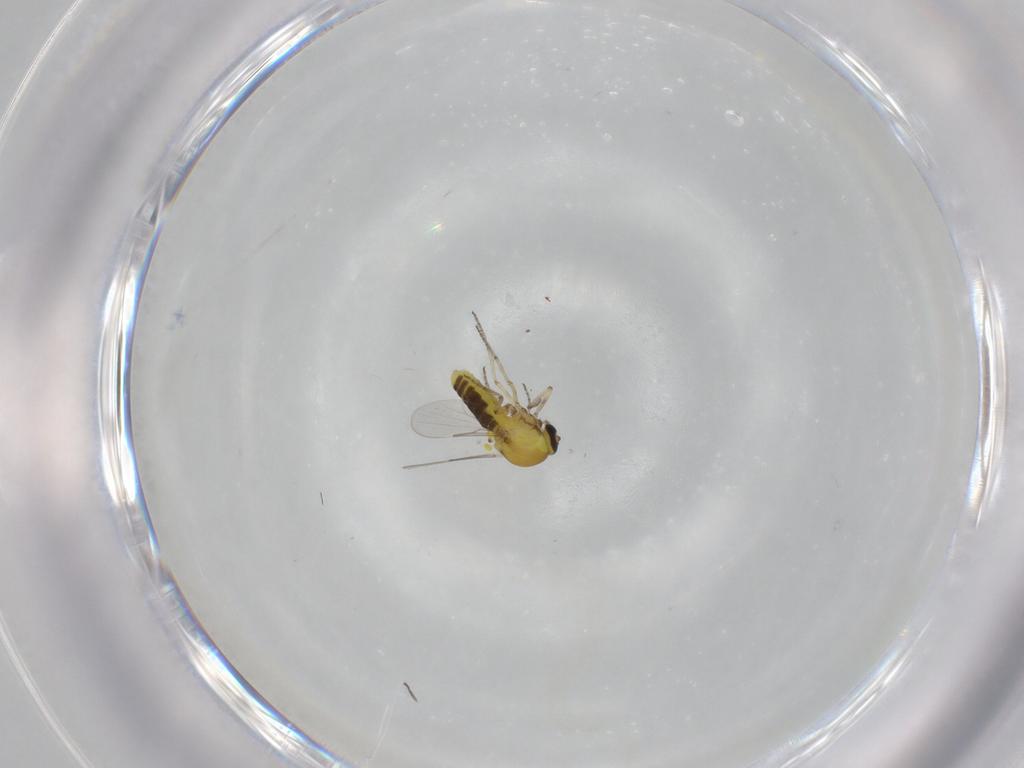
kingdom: Animalia
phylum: Arthropoda
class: Insecta
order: Diptera
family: Sciaridae
